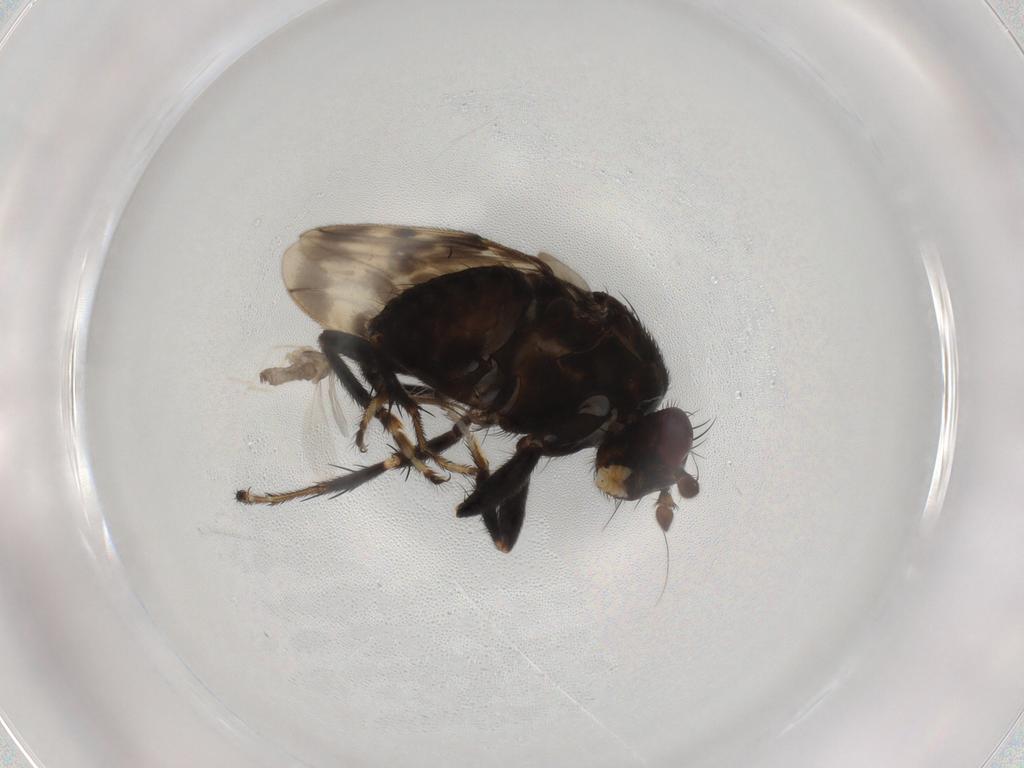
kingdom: Animalia
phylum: Arthropoda
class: Insecta
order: Diptera
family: Sphaeroceridae
